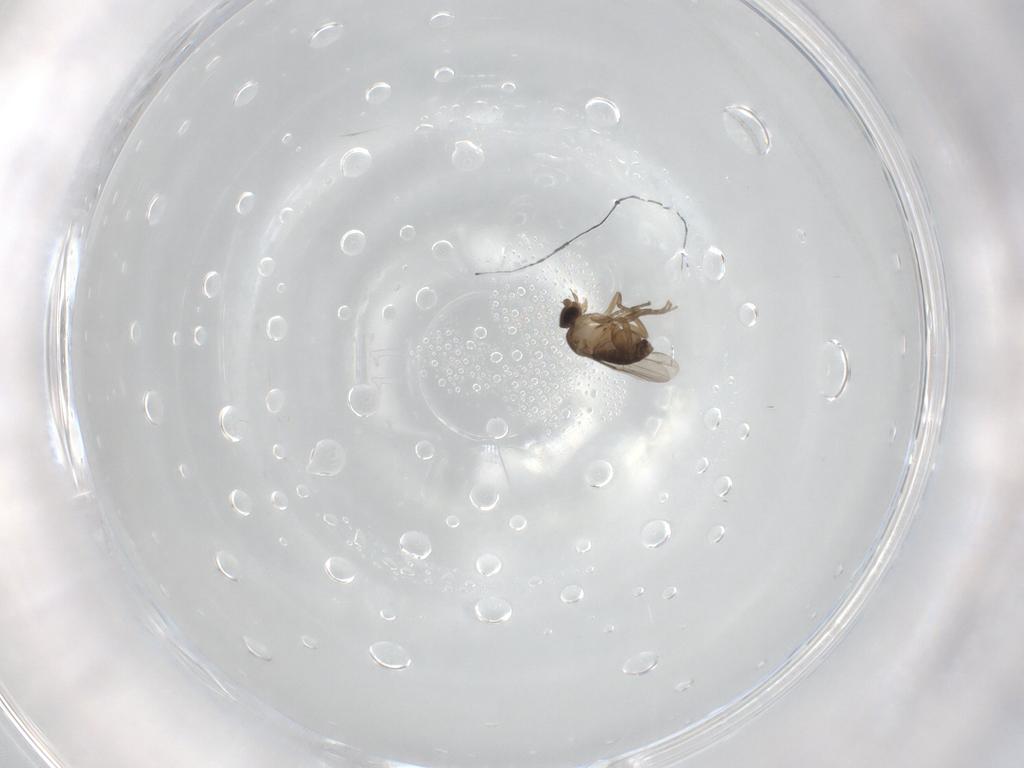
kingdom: Animalia
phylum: Arthropoda
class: Insecta
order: Diptera
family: Phoridae
